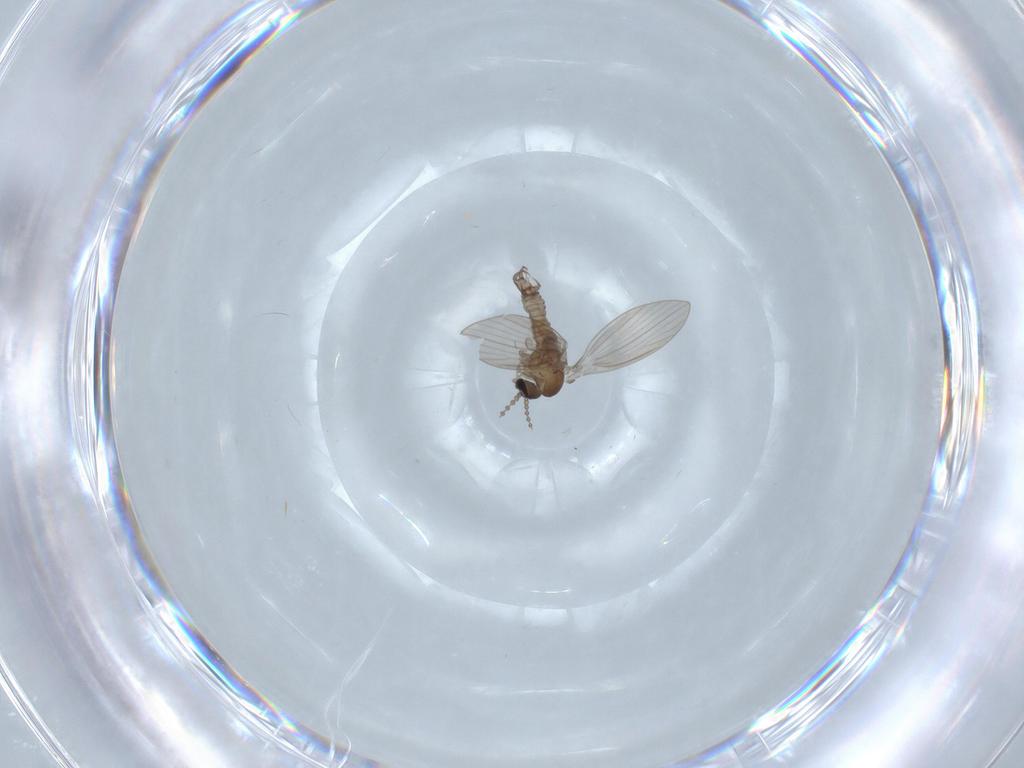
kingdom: Animalia
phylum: Arthropoda
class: Insecta
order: Diptera
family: Psychodidae
